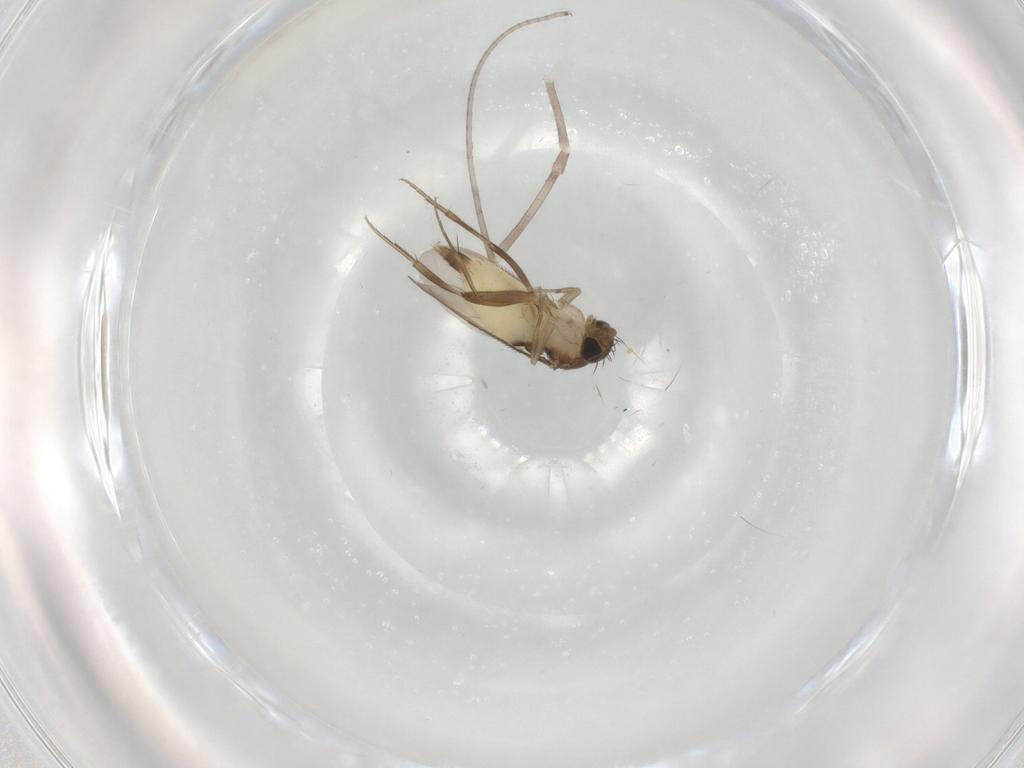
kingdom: Animalia
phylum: Arthropoda
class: Insecta
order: Diptera
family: Phoridae
